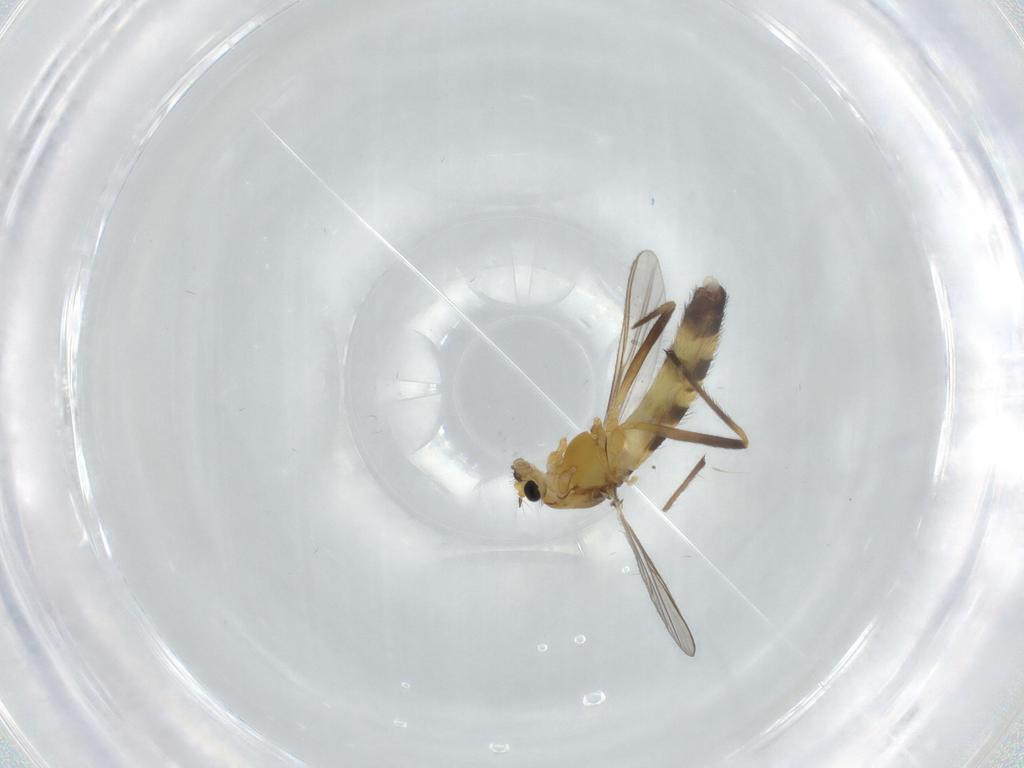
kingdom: Animalia
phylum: Arthropoda
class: Insecta
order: Diptera
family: Chironomidae
